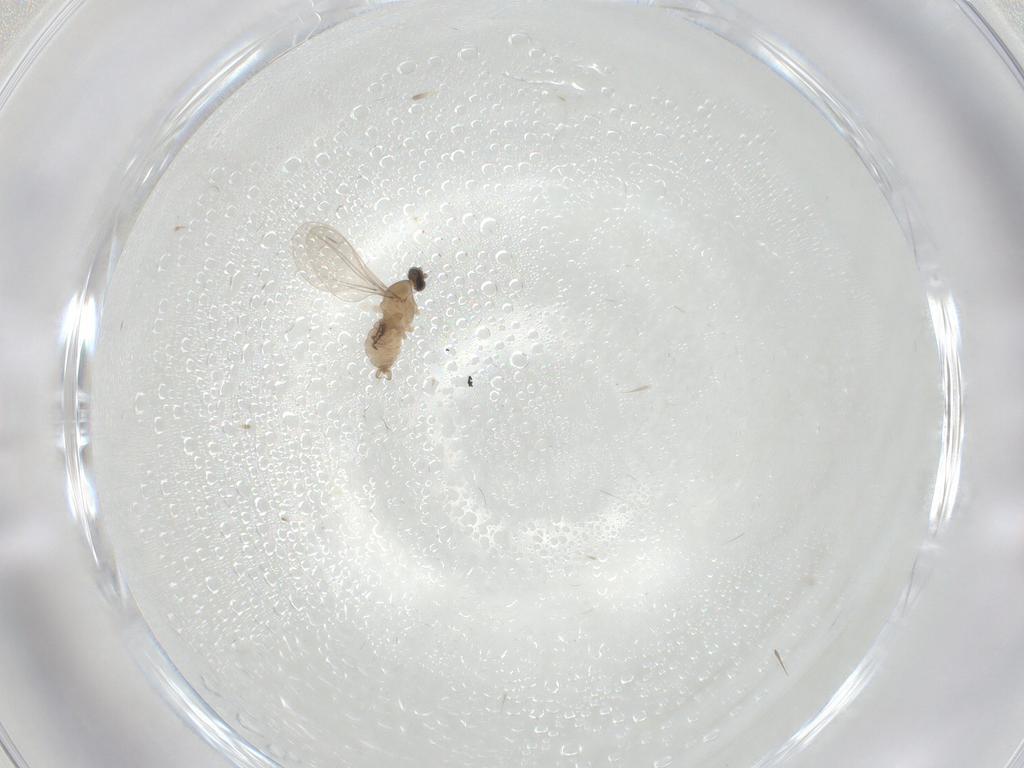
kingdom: Animalia
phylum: Arthropoda
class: Insecta
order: Diptera
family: Cecidomyiidae
